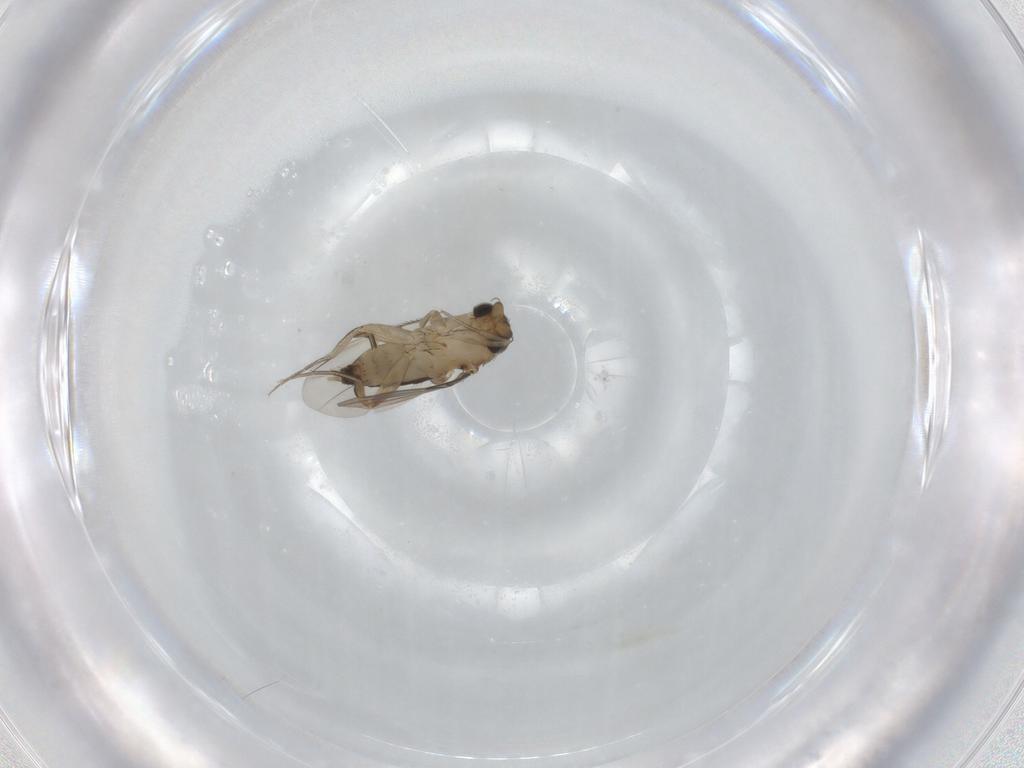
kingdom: Animalia
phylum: Arthropoda
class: Insecta
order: Diptera
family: Phoridae
